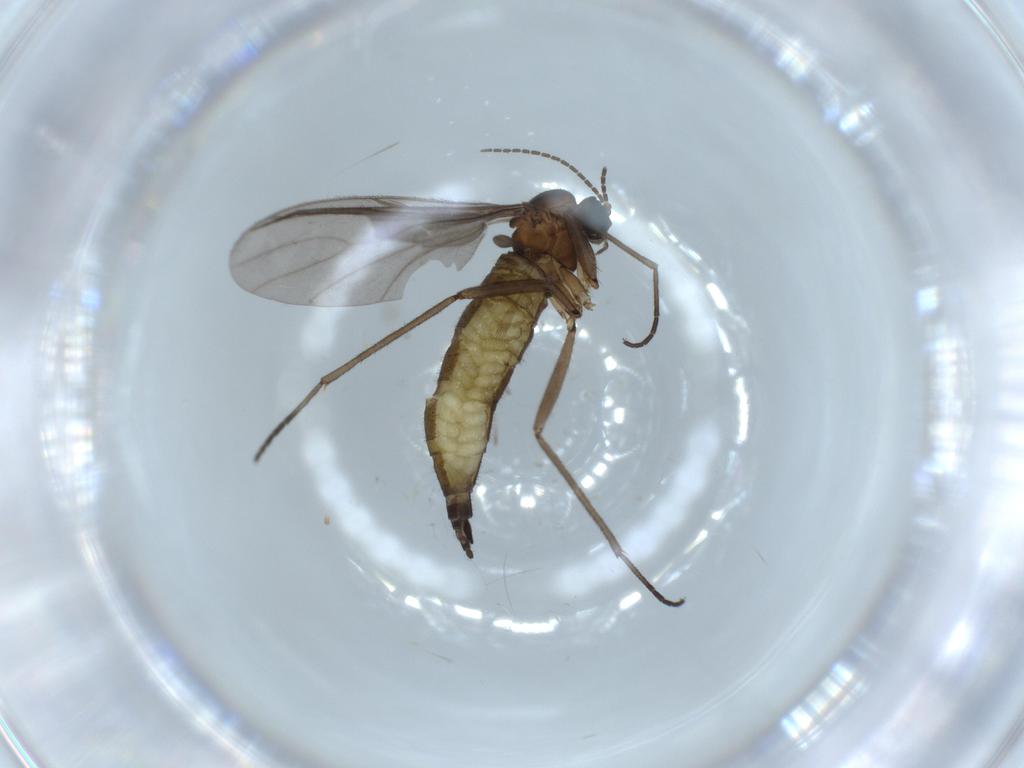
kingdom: Animalia
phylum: Arthropoda
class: Insecta
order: Diptera
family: Sciaridae
